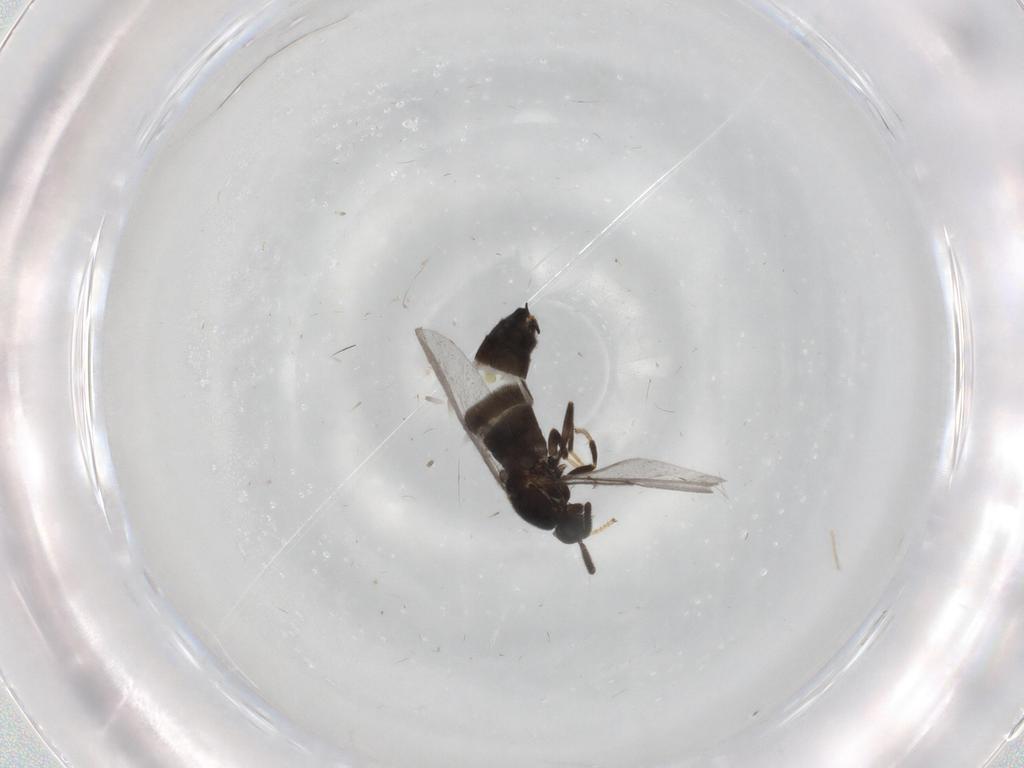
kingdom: Animalia
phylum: Arthropoda
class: Insecta
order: Diptera
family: Scatopsidae
